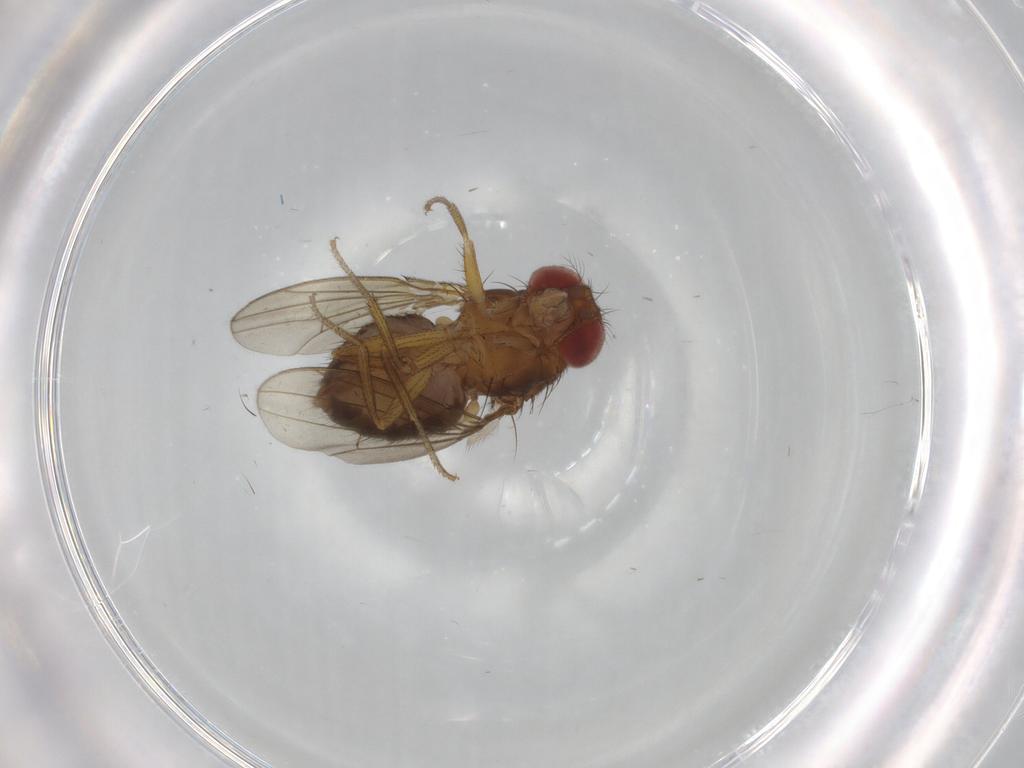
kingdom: Animalia
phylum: Arthropoda
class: Insecta
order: Diptera
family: Drosophilidae
